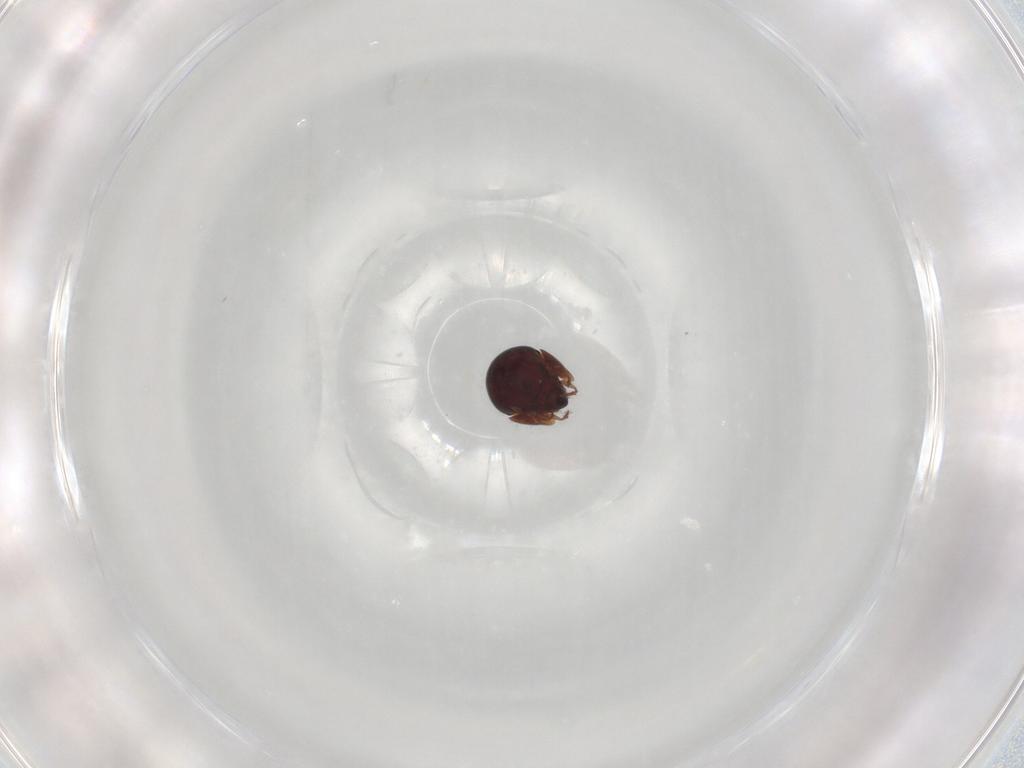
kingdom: Animalia
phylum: Arthropoda
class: Arachnida
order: Sarcoptiformes
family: Galumnidae
